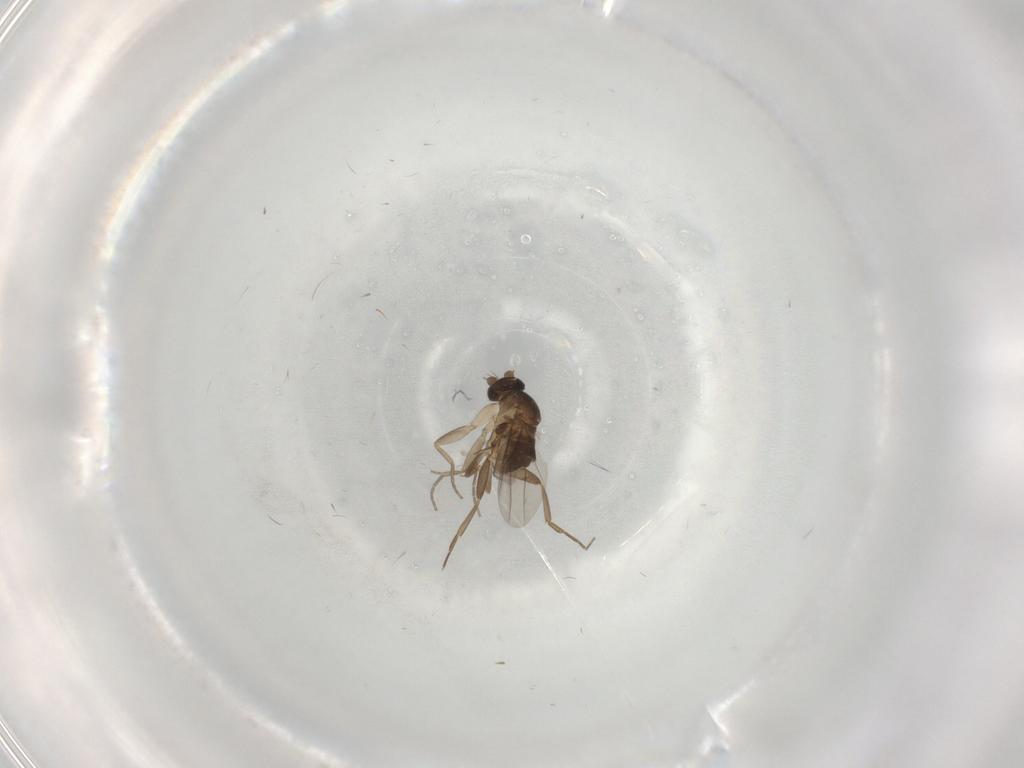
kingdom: Animalia
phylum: Arthropoda
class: Insecta
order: Diptera
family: Phoridae
